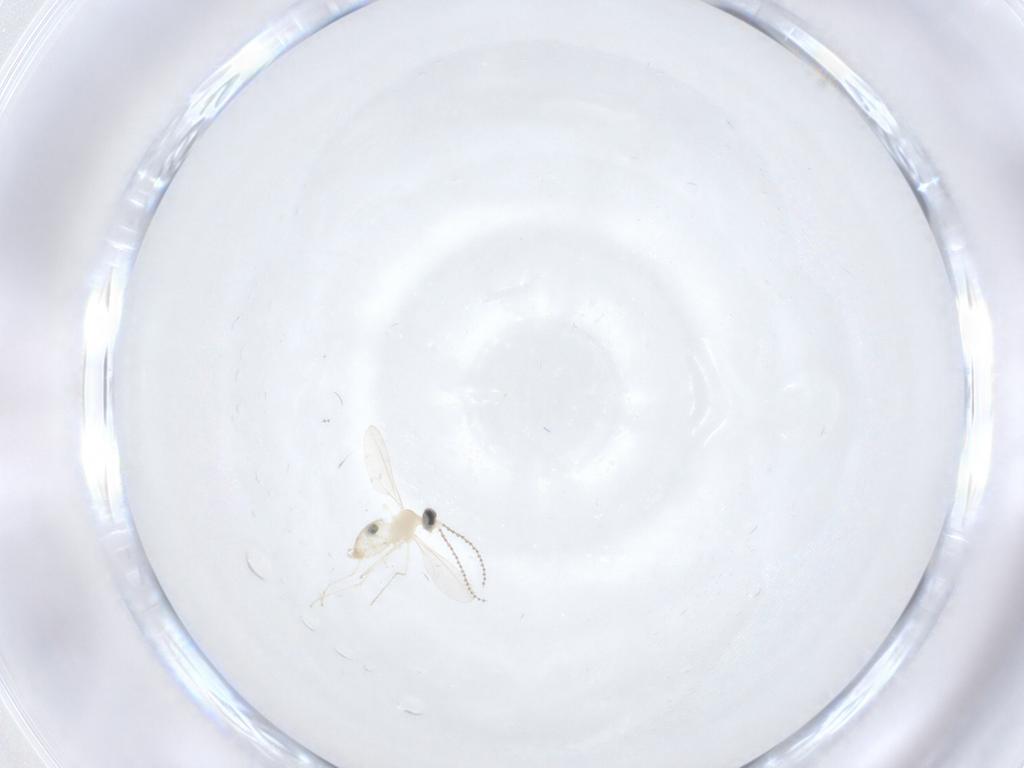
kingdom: Animalia
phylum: Arthropoda
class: Insecta
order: Diptera
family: Cecidomyiidae
